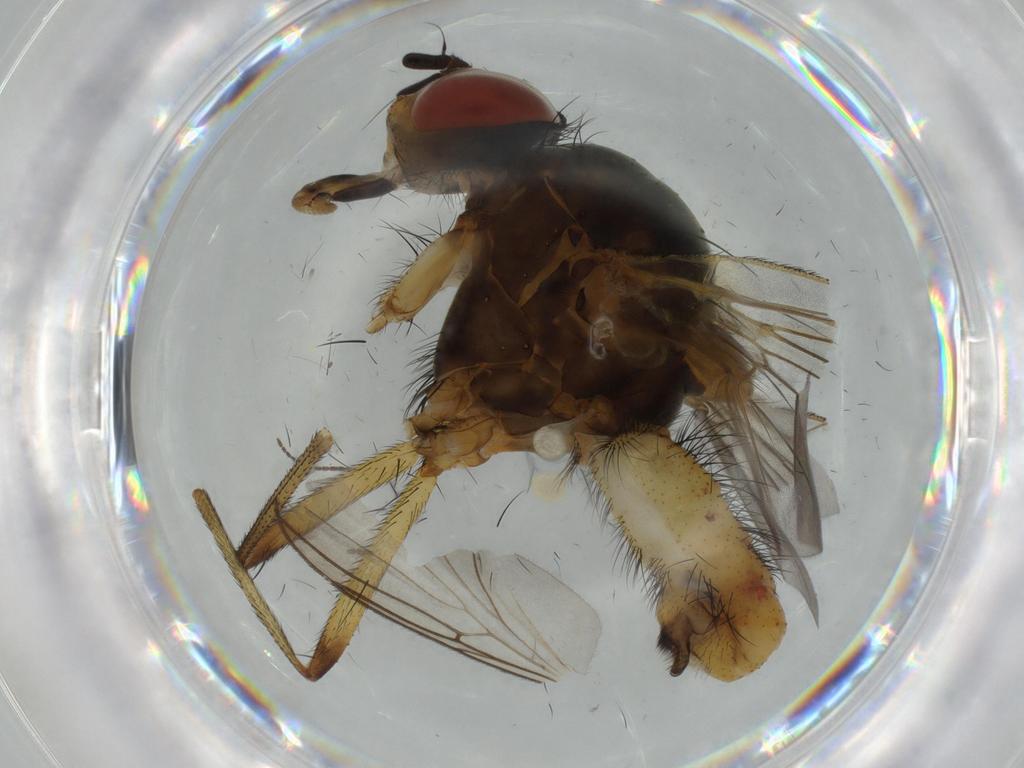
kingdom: Animalia
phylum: Arthropoda
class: Insecta
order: Diptera
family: Mycetophilidae
